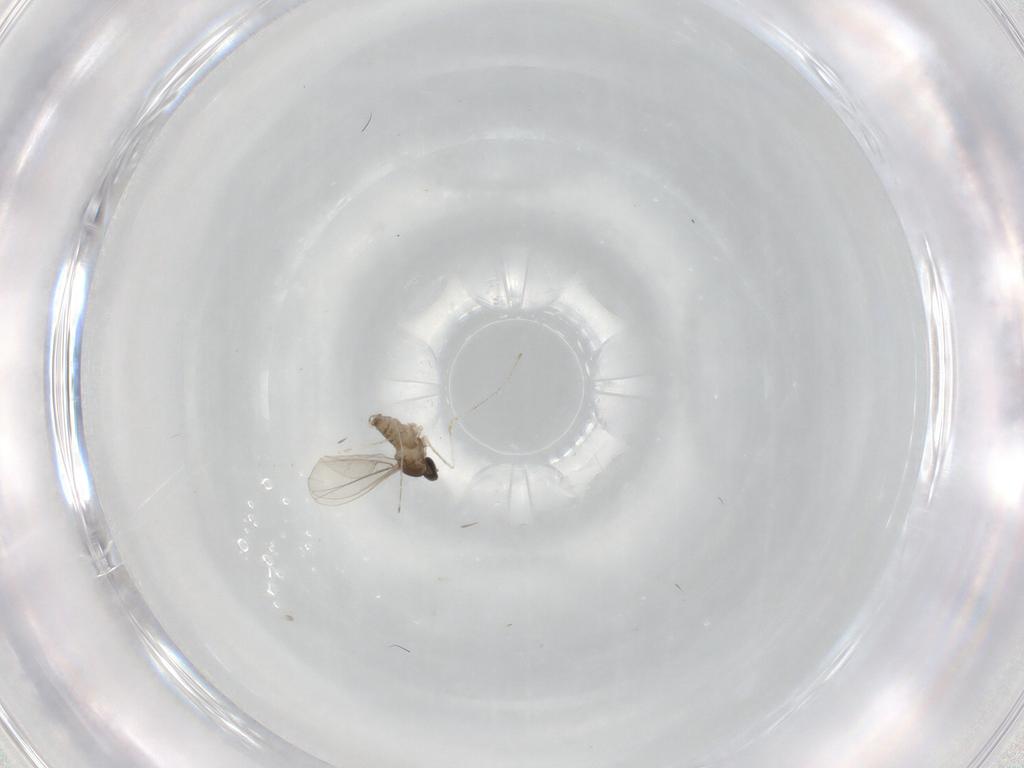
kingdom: Animalia
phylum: Arthropoda
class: Insecta
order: Diptera
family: Cecidomyiidae
